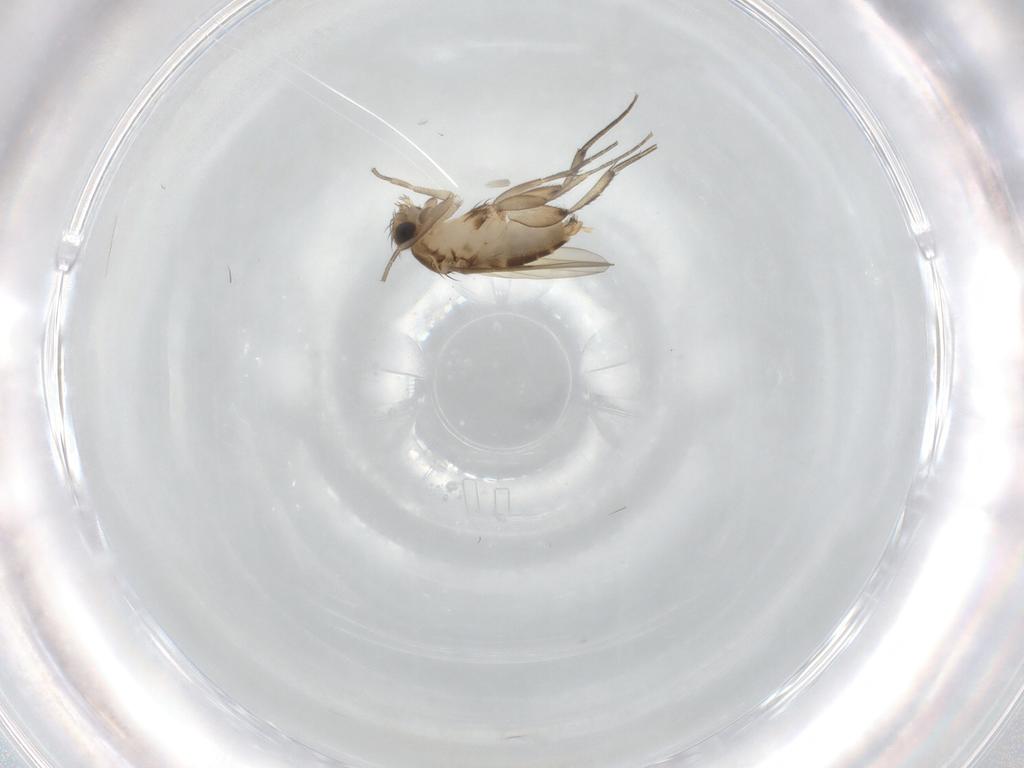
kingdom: Animalia
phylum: Arthropoda
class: Insecta
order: Diptera
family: Phoridae
